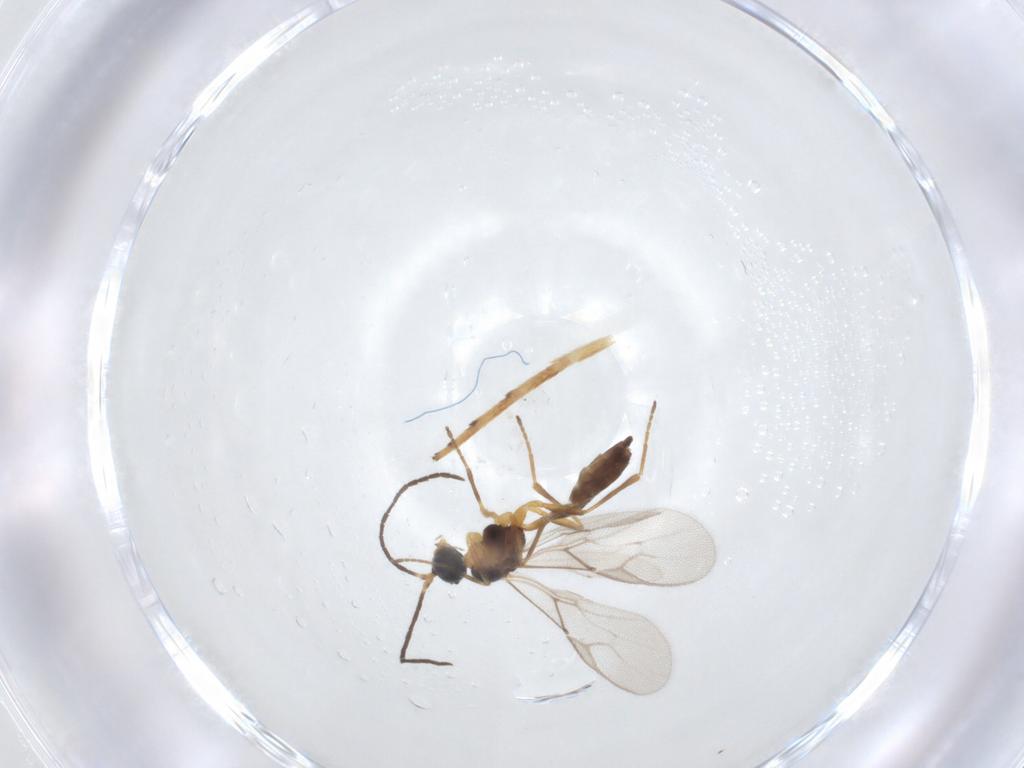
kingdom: Animalia
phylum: Arthropoda
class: Insecta
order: Hymenoptera
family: Braconidae
